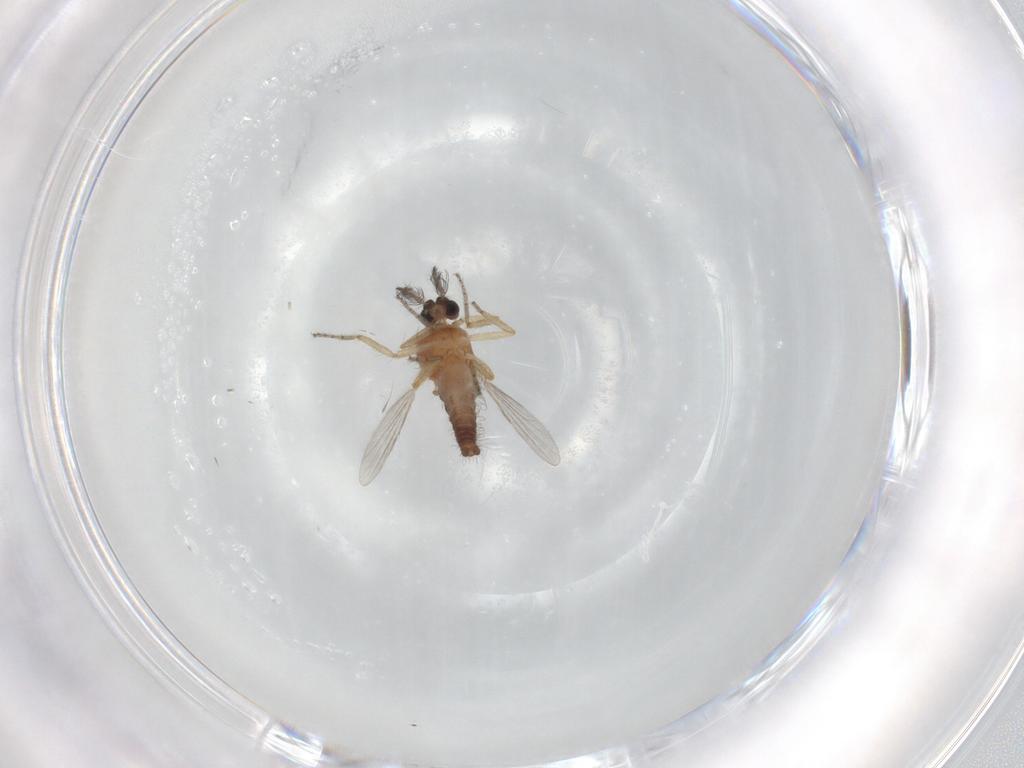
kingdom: Animalia
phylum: Arthropoda
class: Insecta
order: Diptera
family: Ceratopogonidae
